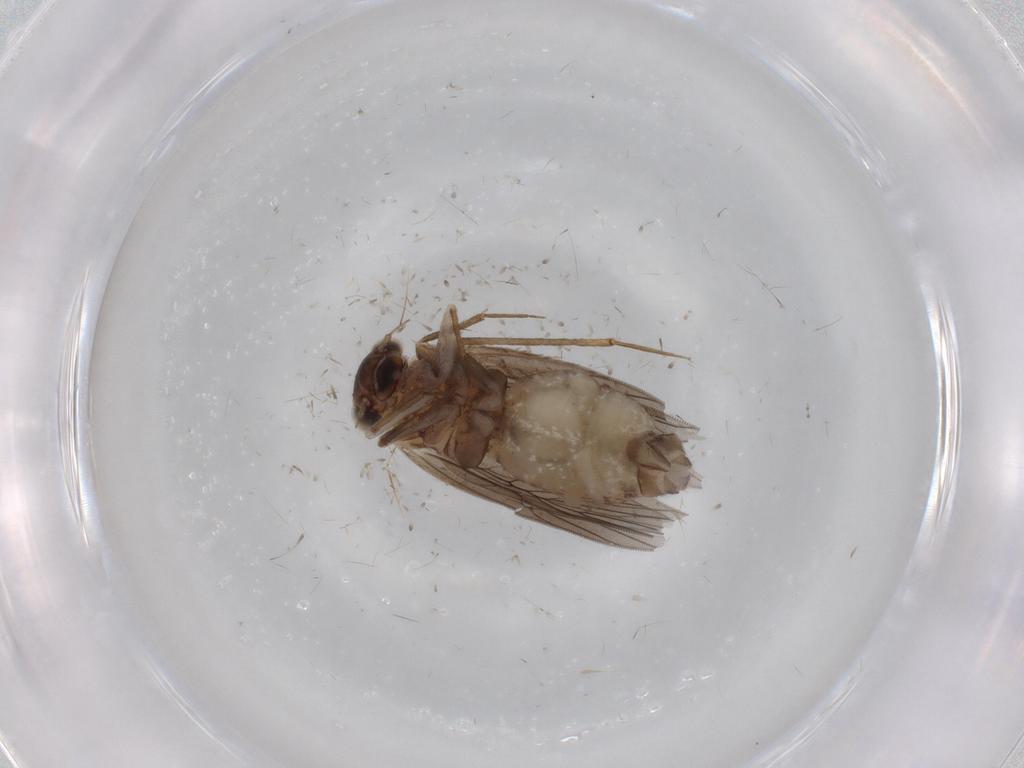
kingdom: Animalia
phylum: Arthropoda
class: Insecta
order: Psocodea
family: Lepidopsocidae
